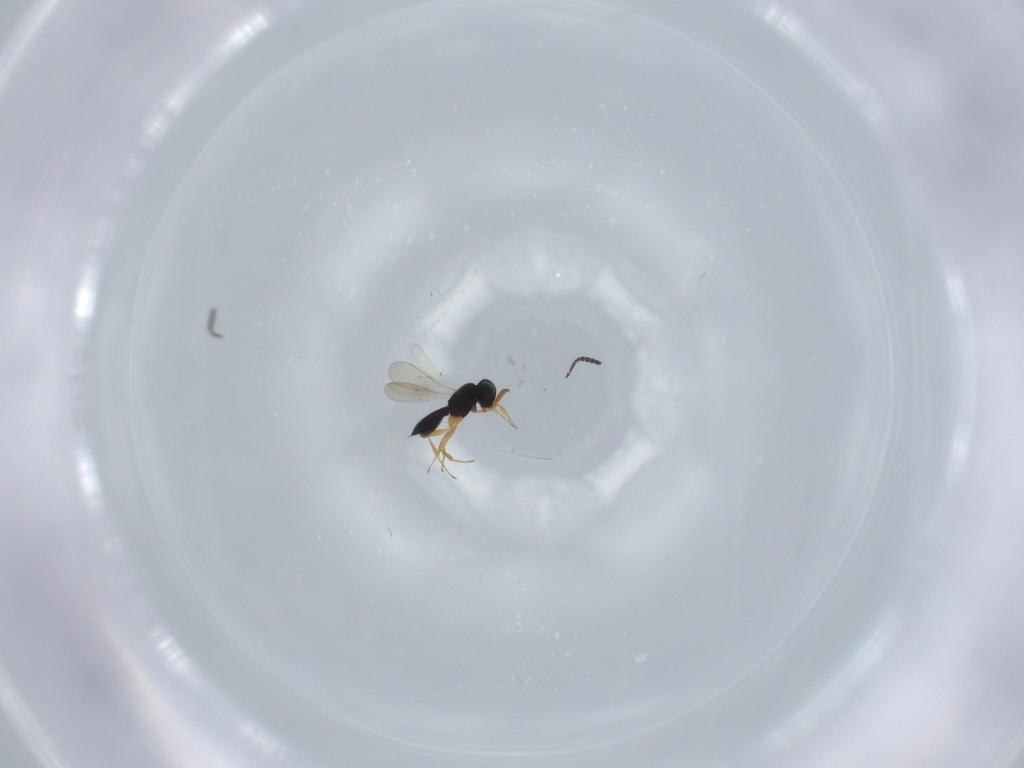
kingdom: Animalia
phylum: Arthropoda
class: Insecta
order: Hymenoptera
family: Scelionidae
